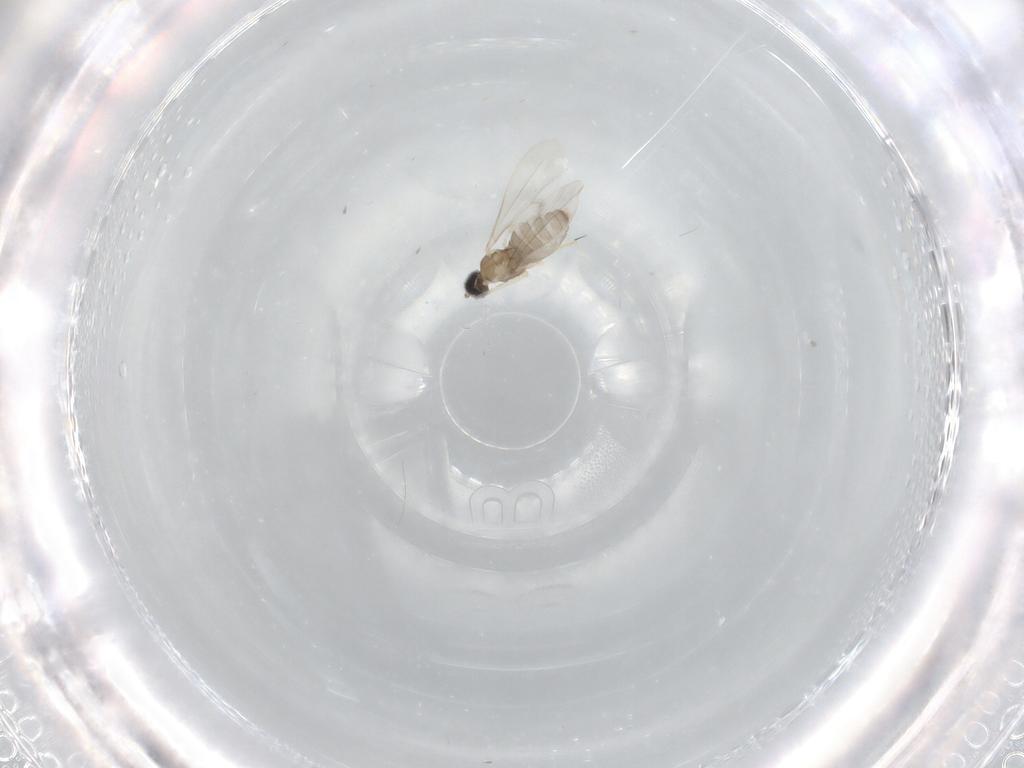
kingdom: Animalia
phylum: Arthropoda
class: Insecta
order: Diptera
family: Cecidomyiidae
